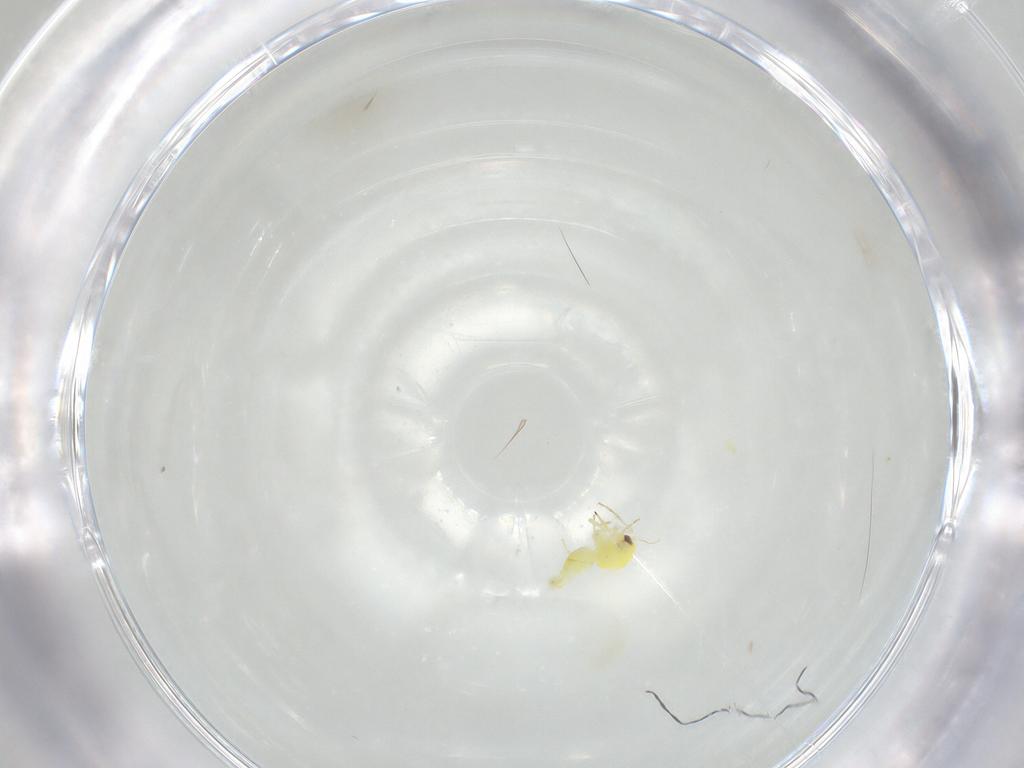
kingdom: Animalia
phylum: Arthropoda
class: Insecta
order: Hemiptera
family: Aleyrodidae
